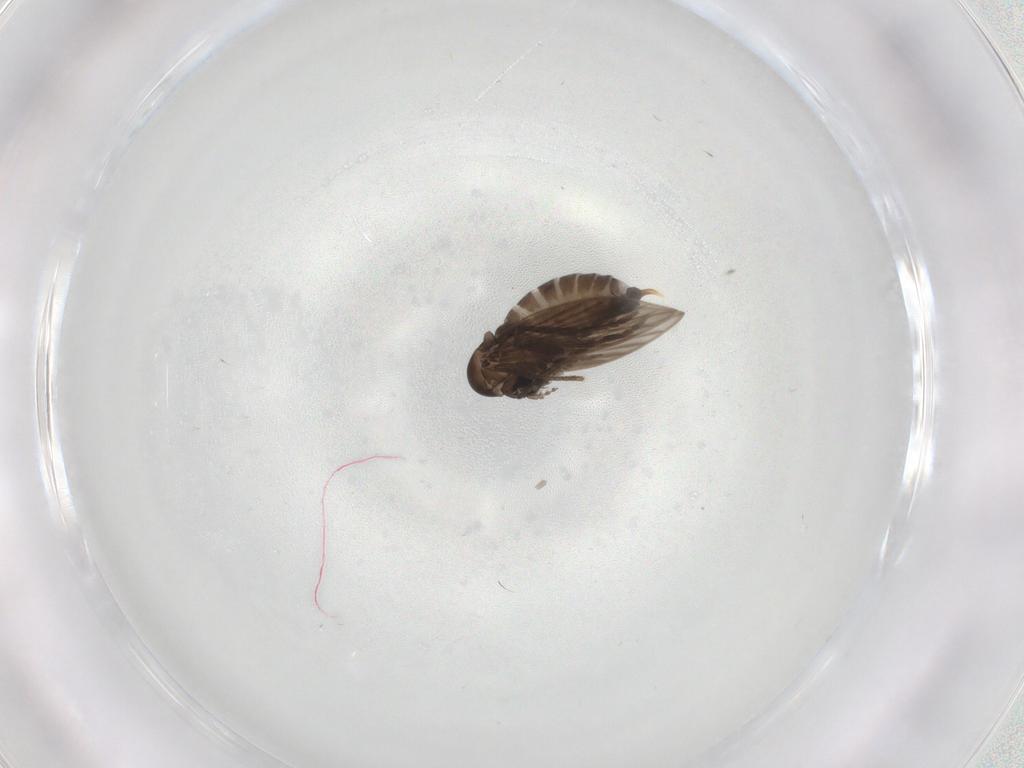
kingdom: Animalia
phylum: Arthropoda
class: Insecta
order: Diptera
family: Psychodidae
